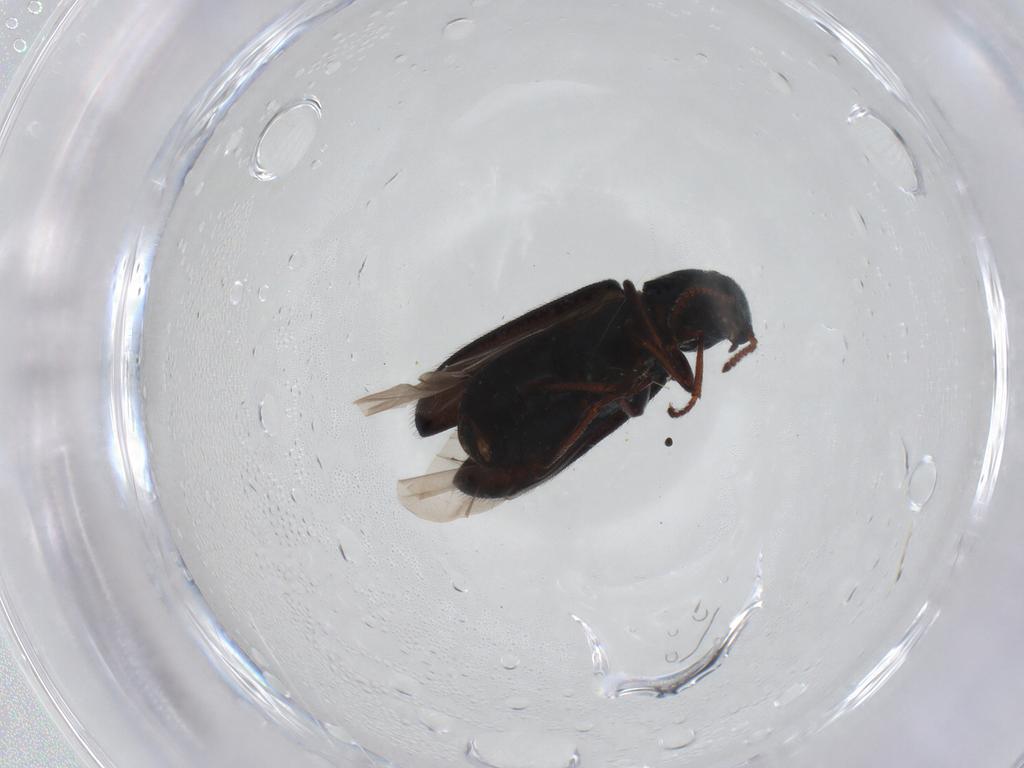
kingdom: Animalia
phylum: Arthropoda
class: Insecta
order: Coleoptera
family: Melyridae
